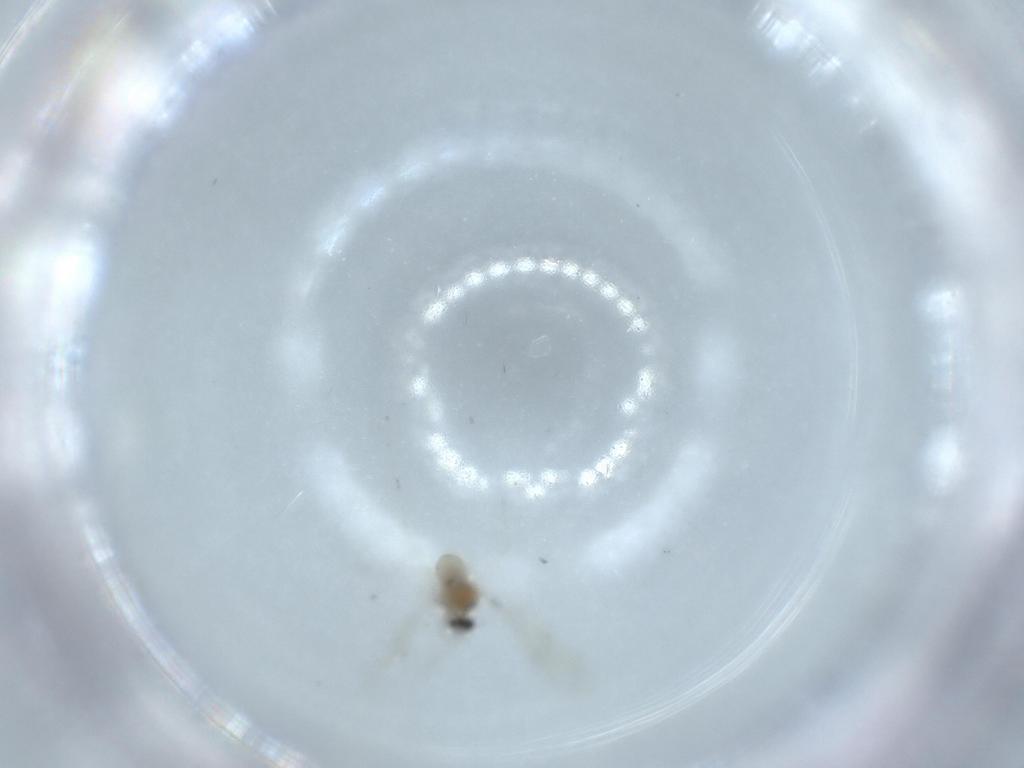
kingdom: Animalia
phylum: Arthropoda
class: Insecta
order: Diptera
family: Cecidomyiidae
